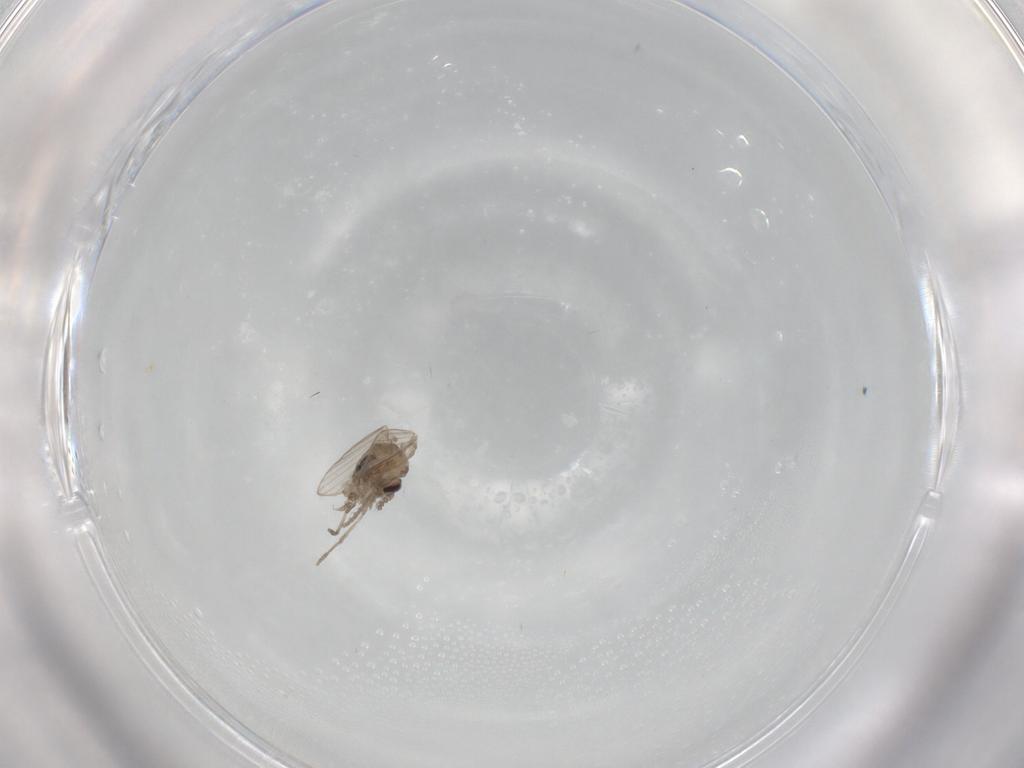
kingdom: Animalia
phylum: Arthropoda
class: Insecta
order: Diptera
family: Psychodidae
